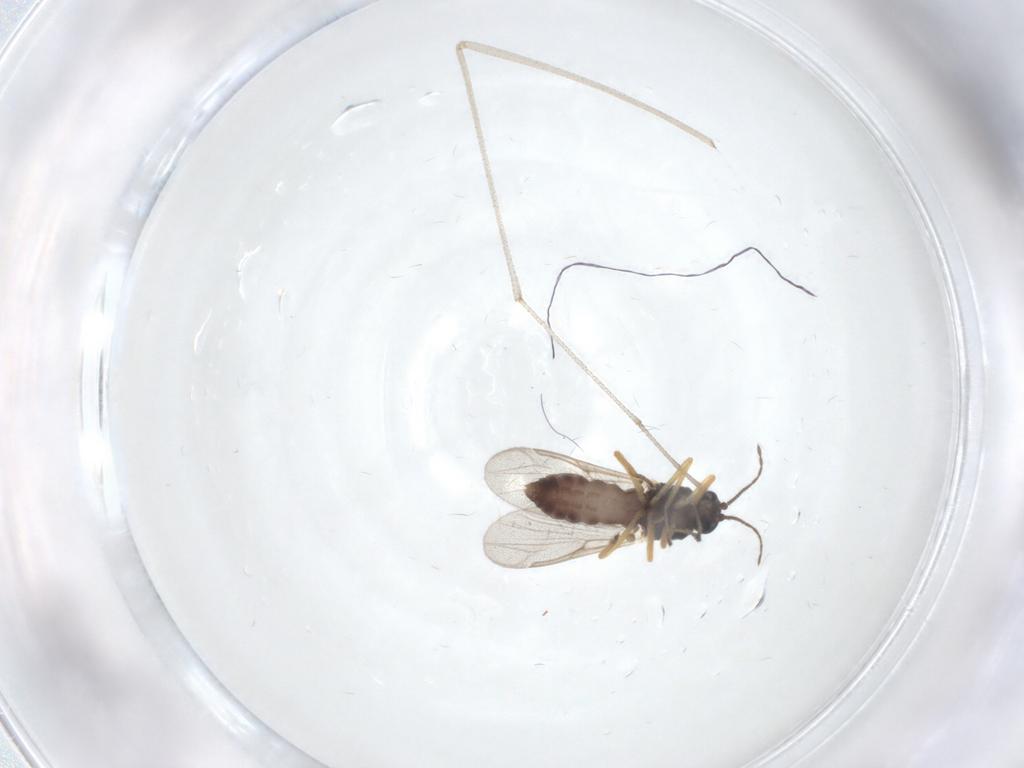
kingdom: Animalia
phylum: Arthropoda
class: Insecta
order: Diptera
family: Ceratopogonidae
